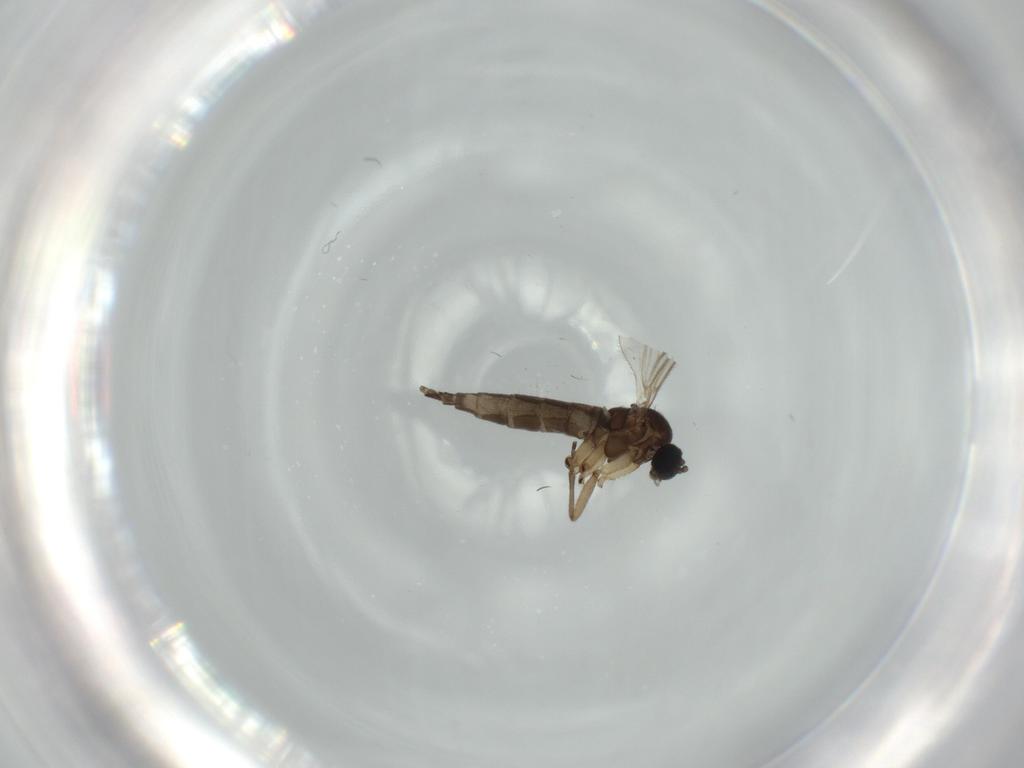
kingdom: Animalia
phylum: Arthropoda
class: Insecta
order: Diptera
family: Sciaridae
